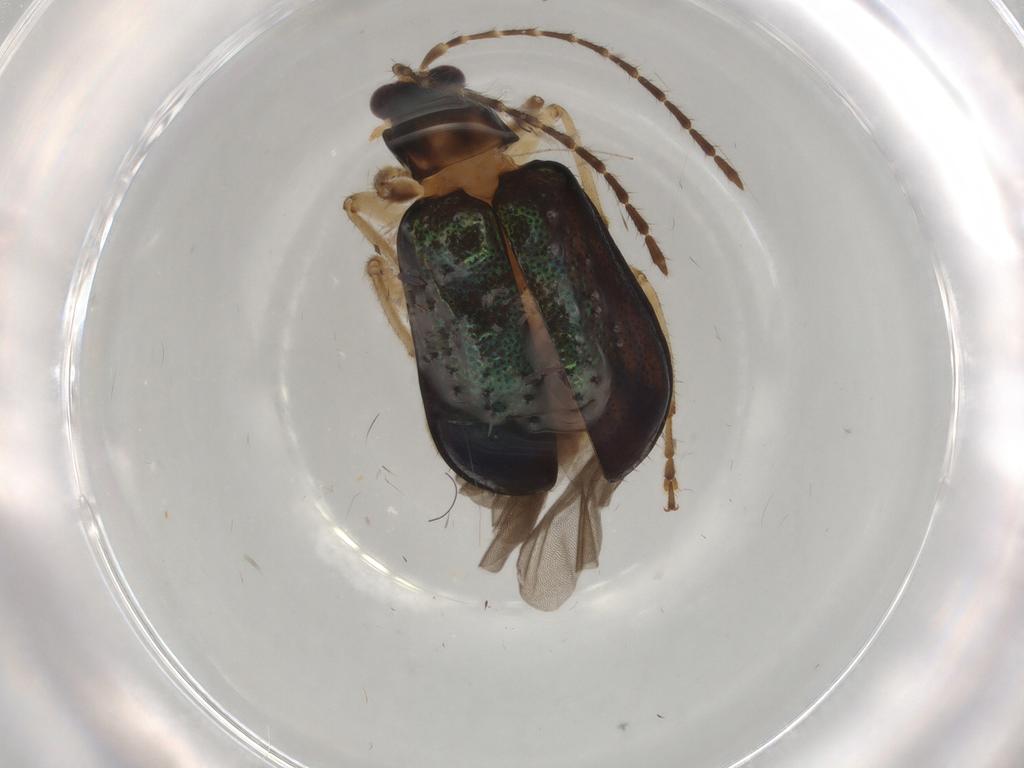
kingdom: Animalia
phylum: Arthropoda
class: Insecta
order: Coleoptera
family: Chrysomelidae
